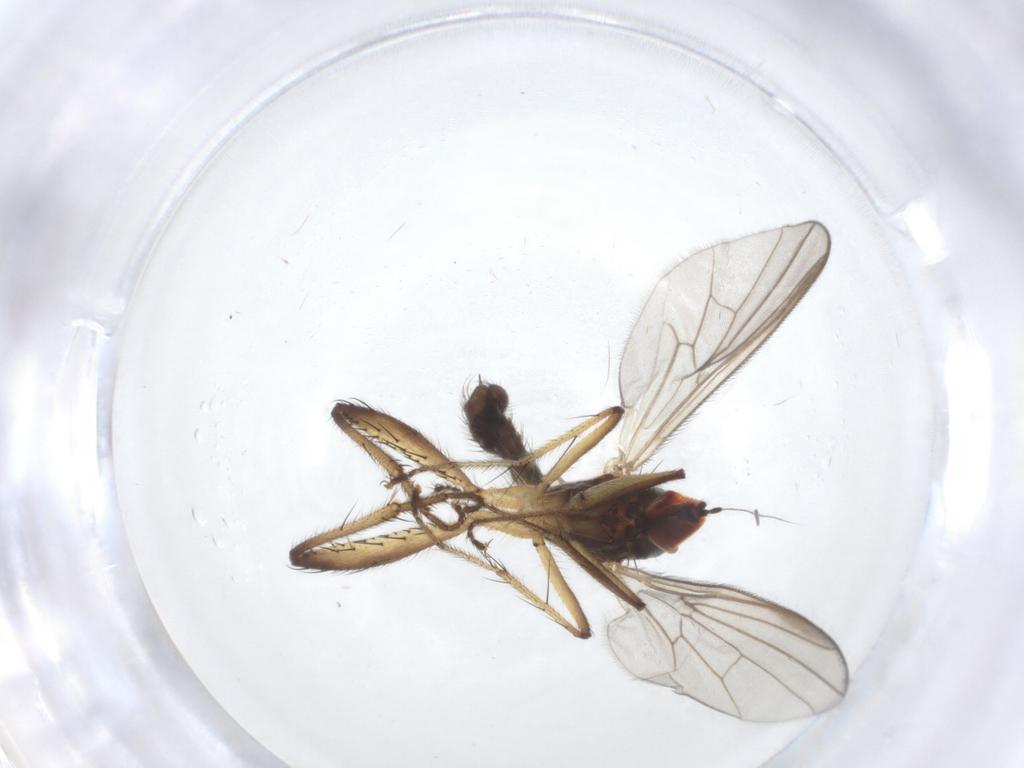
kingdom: Animalia
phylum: Arthropoda
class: Insecta
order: Diptera
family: Hybotidae
